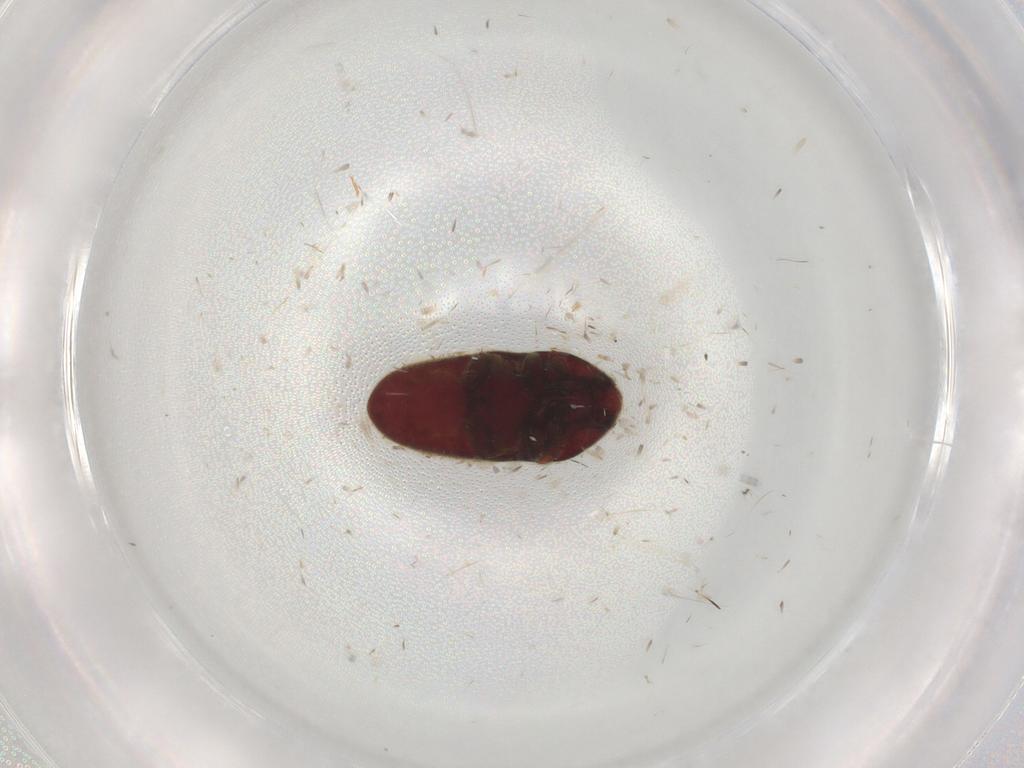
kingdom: Animalia
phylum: Arthropoda
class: Insecta
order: Coleoptera
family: Throscidae
